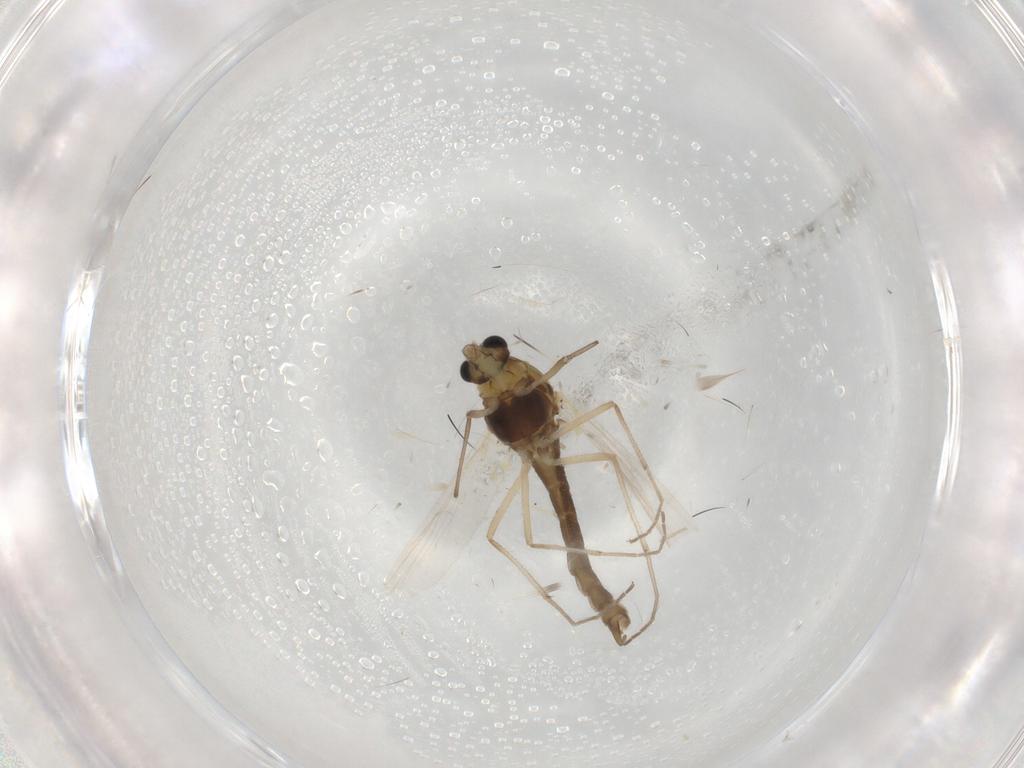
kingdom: Animalia
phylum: Arthropoda
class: Insecta
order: Diptera
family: Chironomidae
